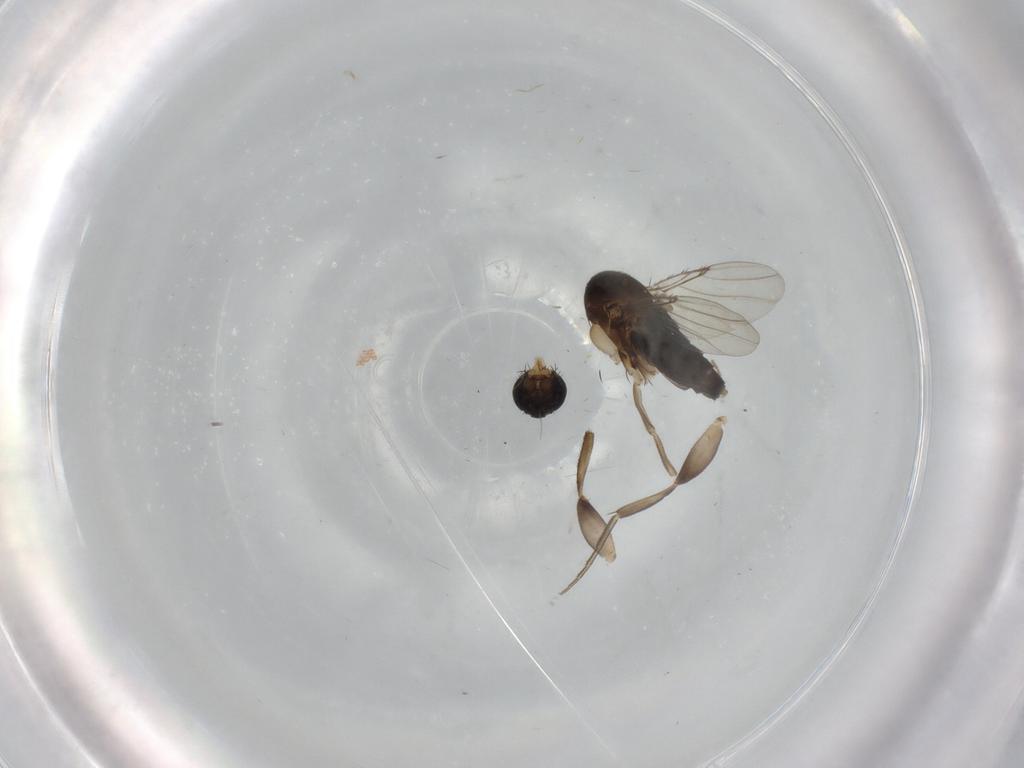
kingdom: Animalia
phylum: Arthropoda
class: Insecta
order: Diptera
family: Phoridae
